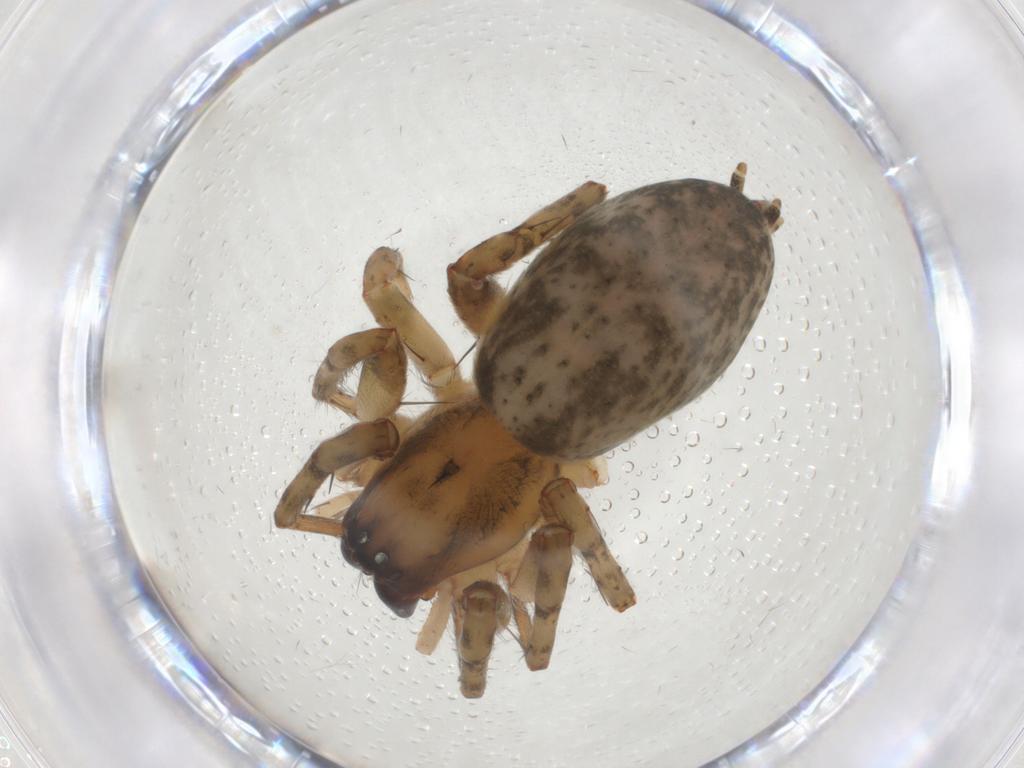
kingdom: Animalia
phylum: Arthropoda
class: Arachnida
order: Araneae
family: Anyphaenidae
